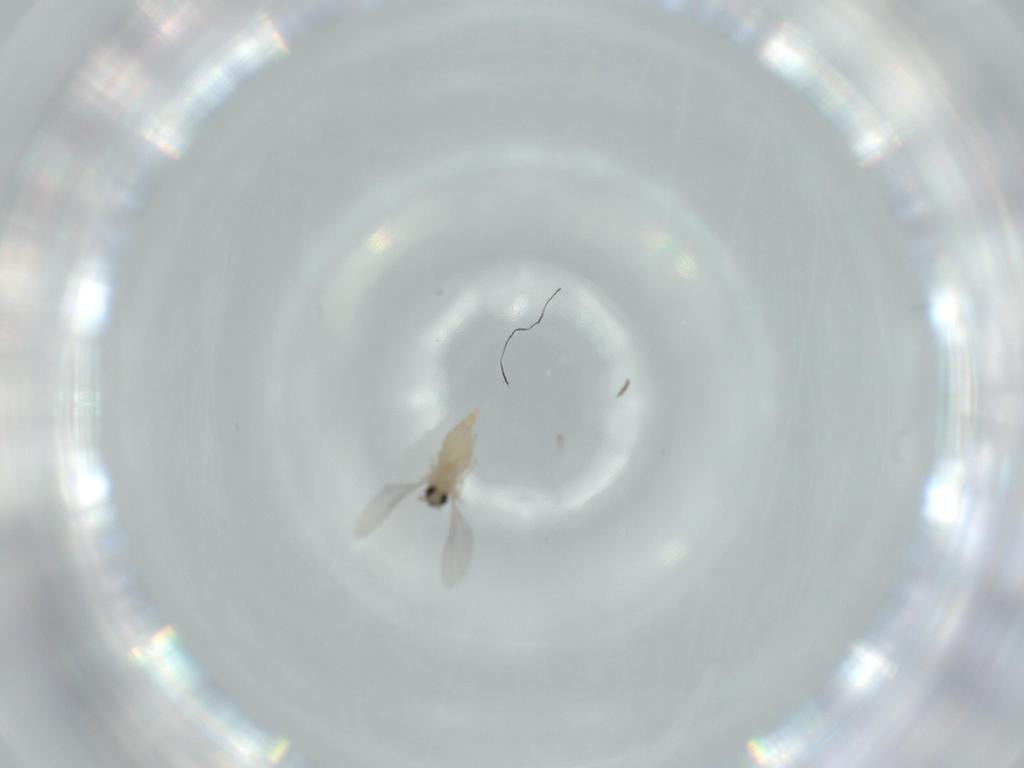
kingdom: Animalia
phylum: Arthropoda
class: Insecta
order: Diptera
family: Cecidomyiidae
